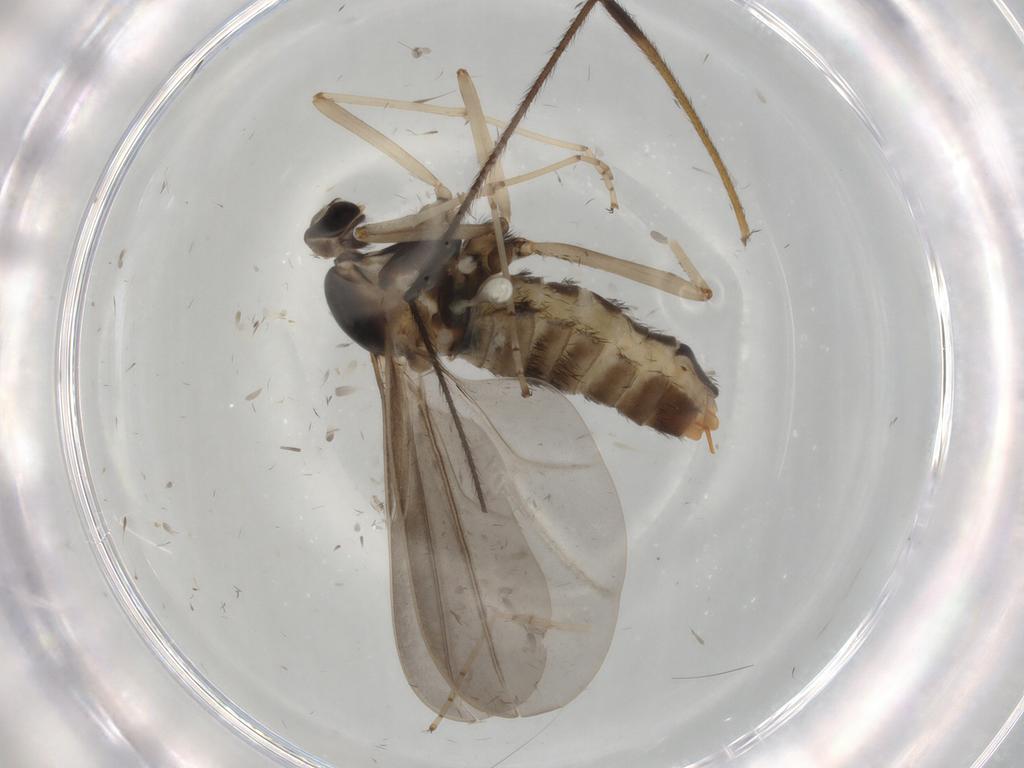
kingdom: Animalia
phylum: Arthropoda
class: Insecta
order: Diptera
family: Cecidomyiidae
